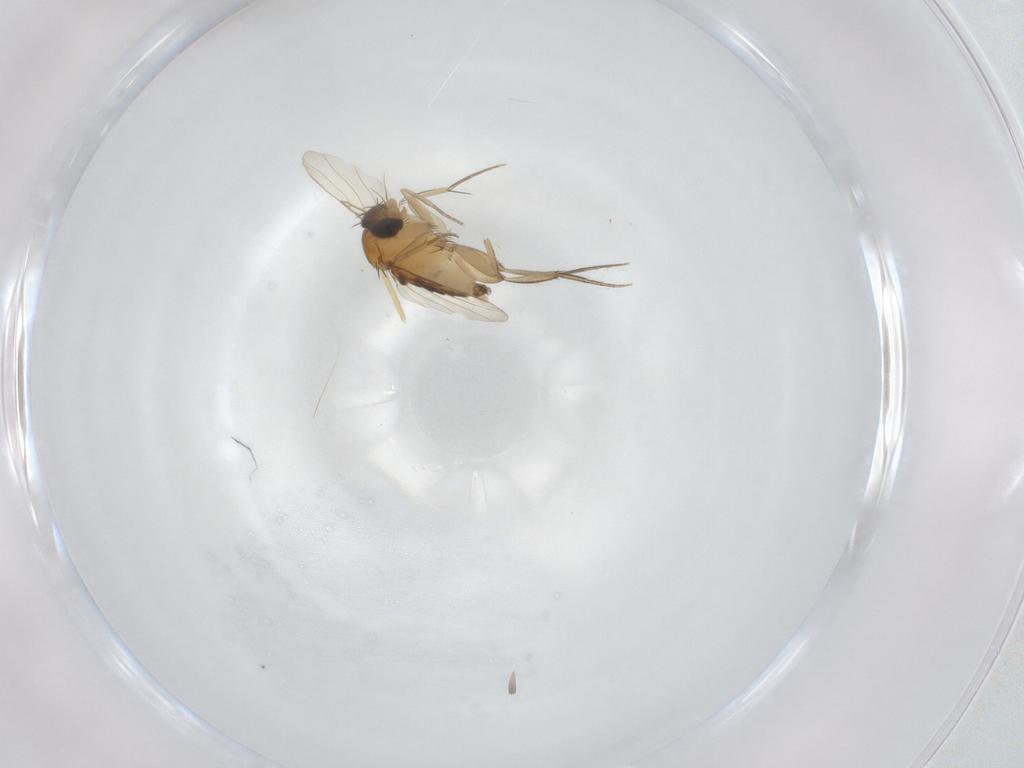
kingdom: Animalia
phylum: Arthropoda
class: Insecta
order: Diptera
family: Phoridae
